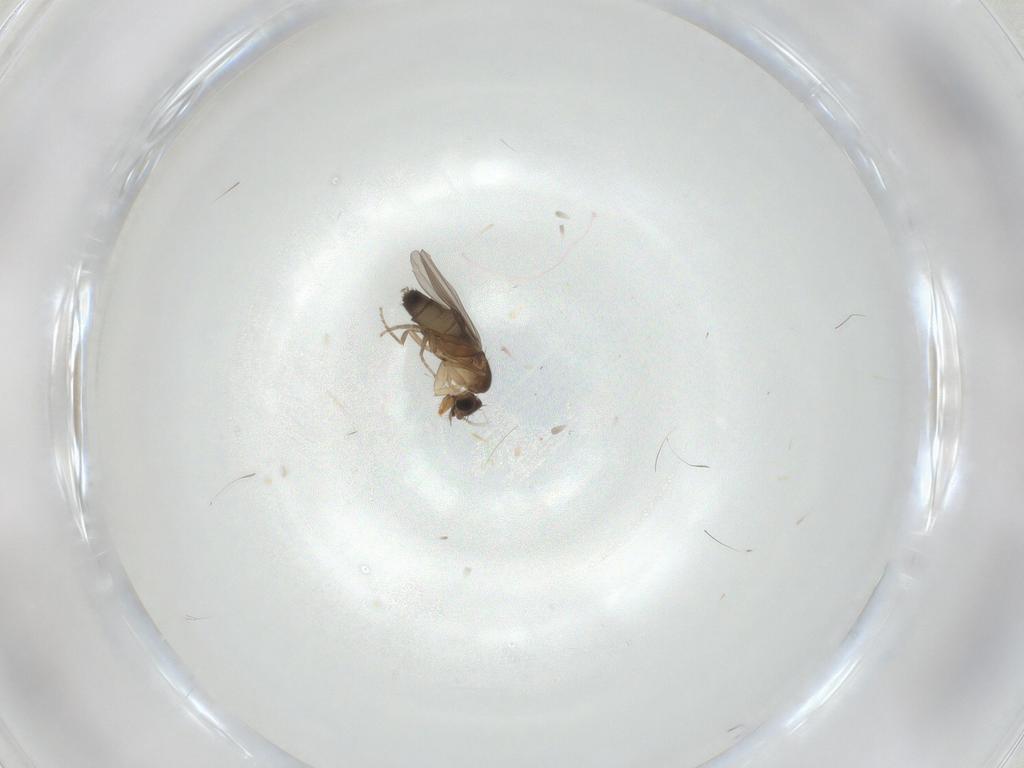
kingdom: Animalia
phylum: Arthropoda
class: Insecta
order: Diptera
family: Phoridae
